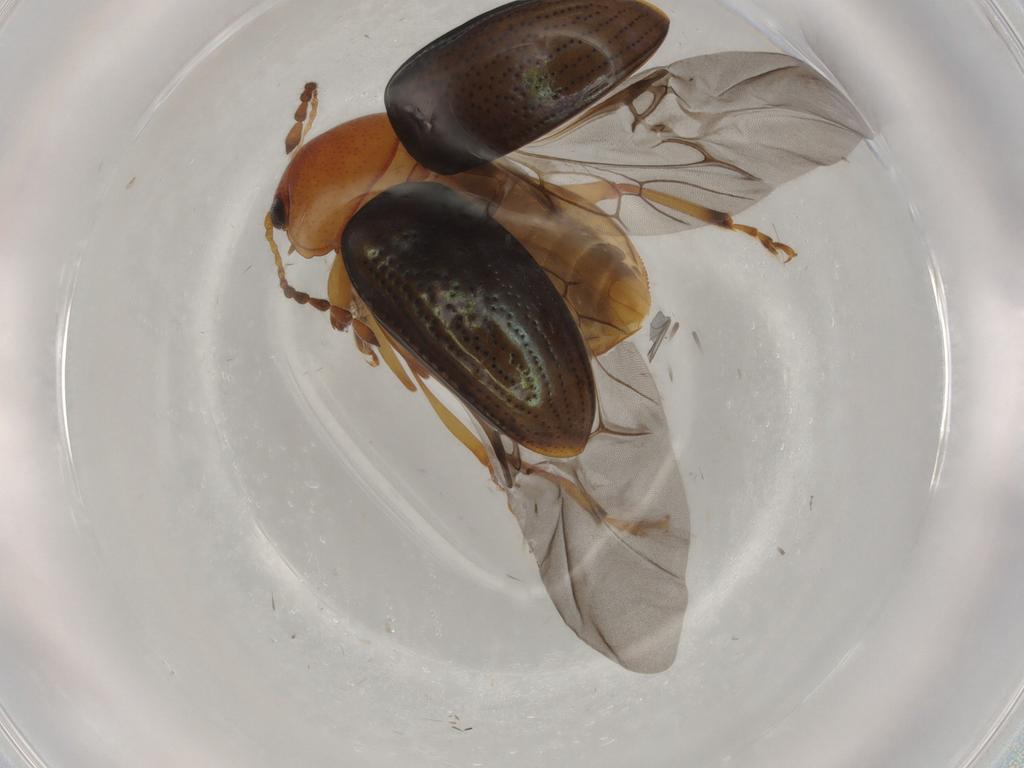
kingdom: Animalia
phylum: Arthropoda
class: Insecta
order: Coleoptera
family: Chrysomelidae
